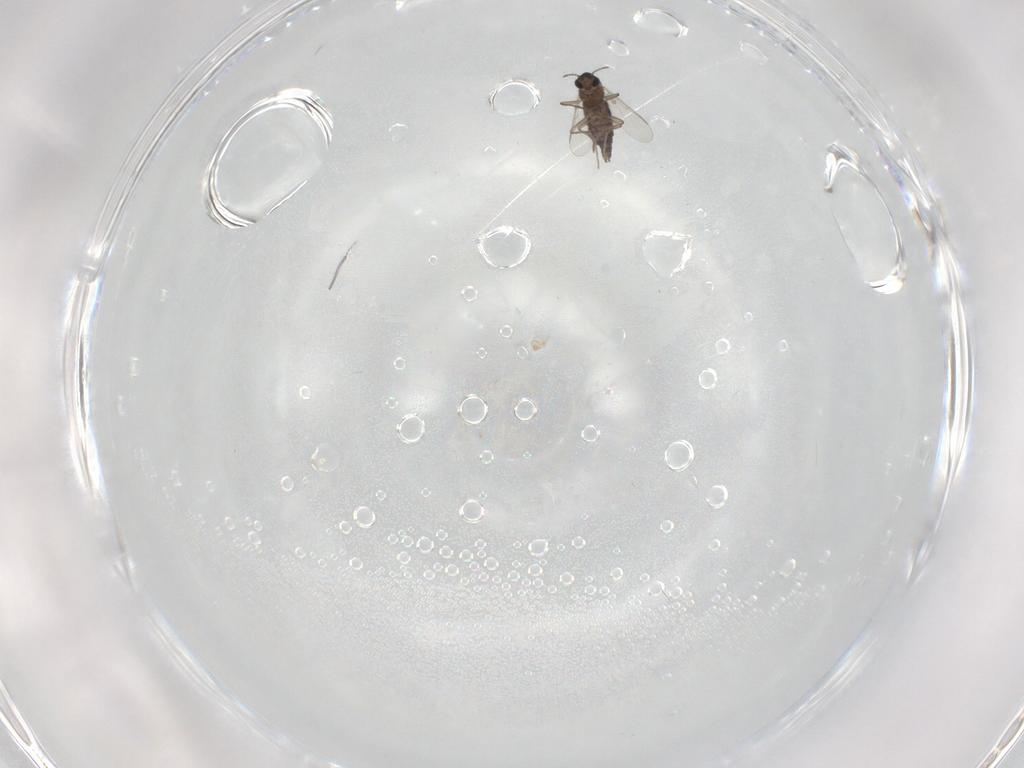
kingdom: Animalia
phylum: Arthropoda
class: Insecta
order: Diptera
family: Chironomidae
